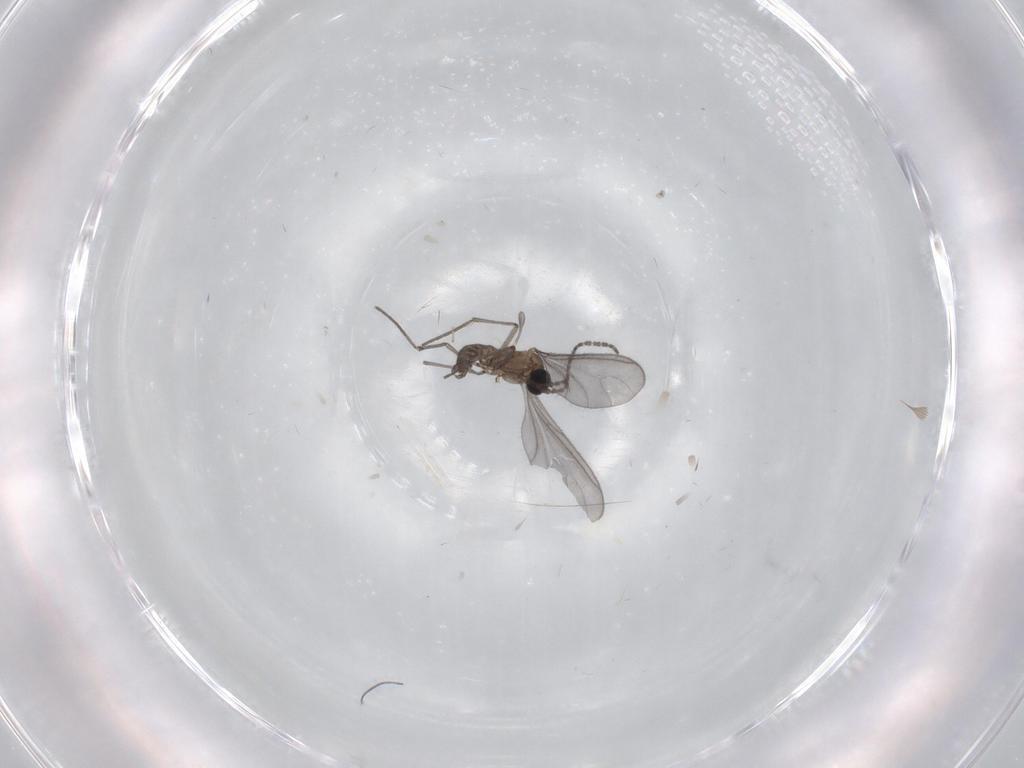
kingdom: Animalia
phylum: Arthropoda
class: Insecta
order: Diptera
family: Sciaridae
